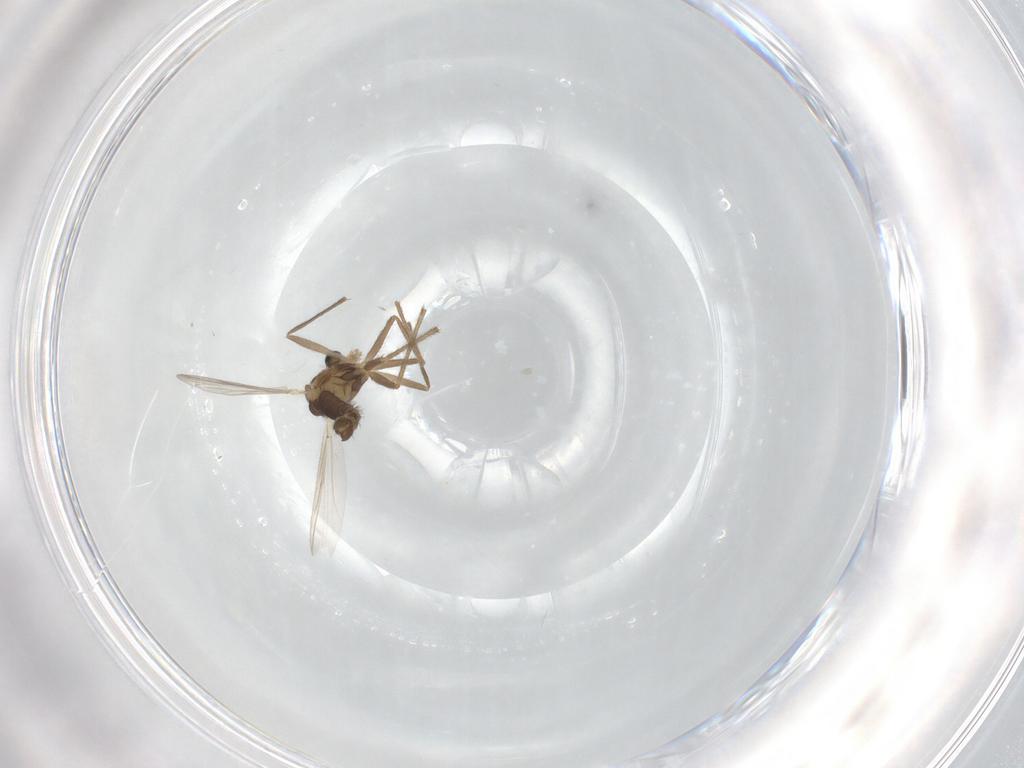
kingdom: Animalia
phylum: Arthropoda
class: Insecta
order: Diptera
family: Chironomidae
